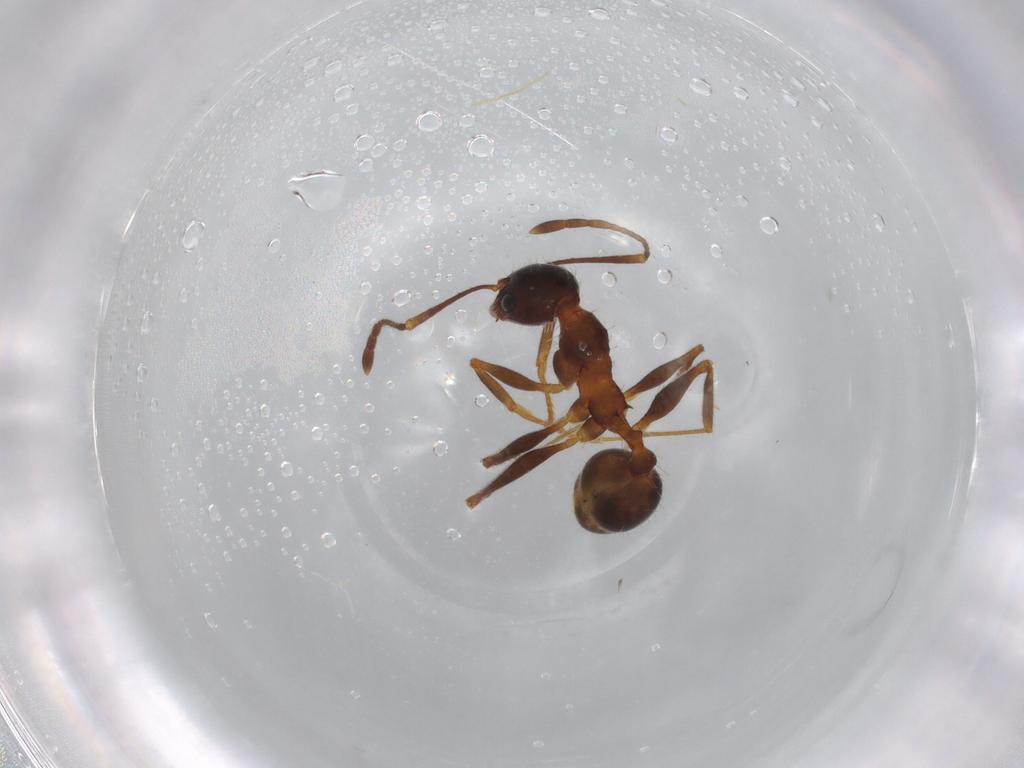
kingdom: Animalia
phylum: Arthropoda
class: Insecta
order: Hymenoptera
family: Formicidae
